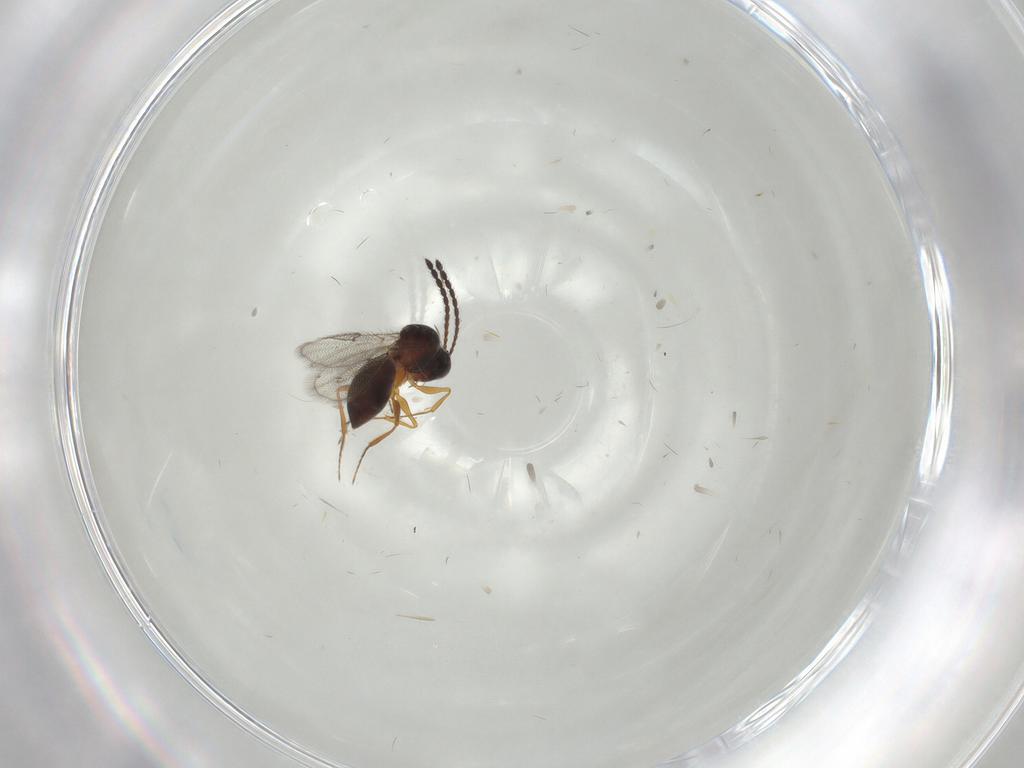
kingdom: Animalia
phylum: Arthropoda
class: Insecta
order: Hymenoptera
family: Figitidae
